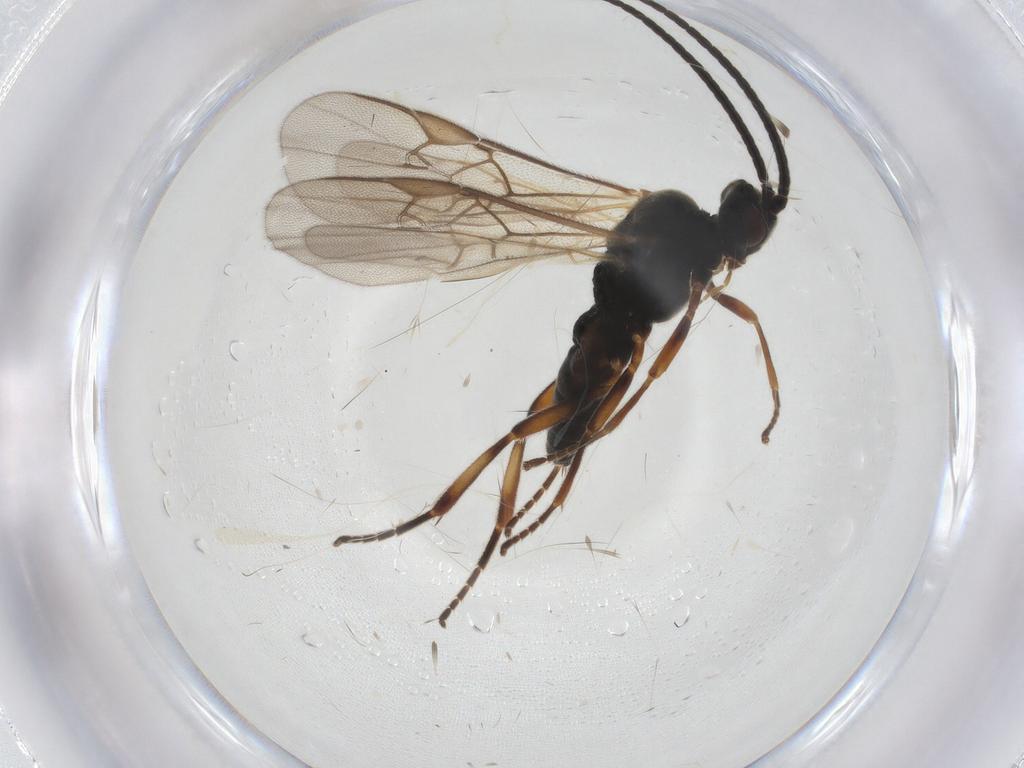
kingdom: Animalia
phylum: Arthropoda
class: Insecta
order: Hymenoptera
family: Braconidae
